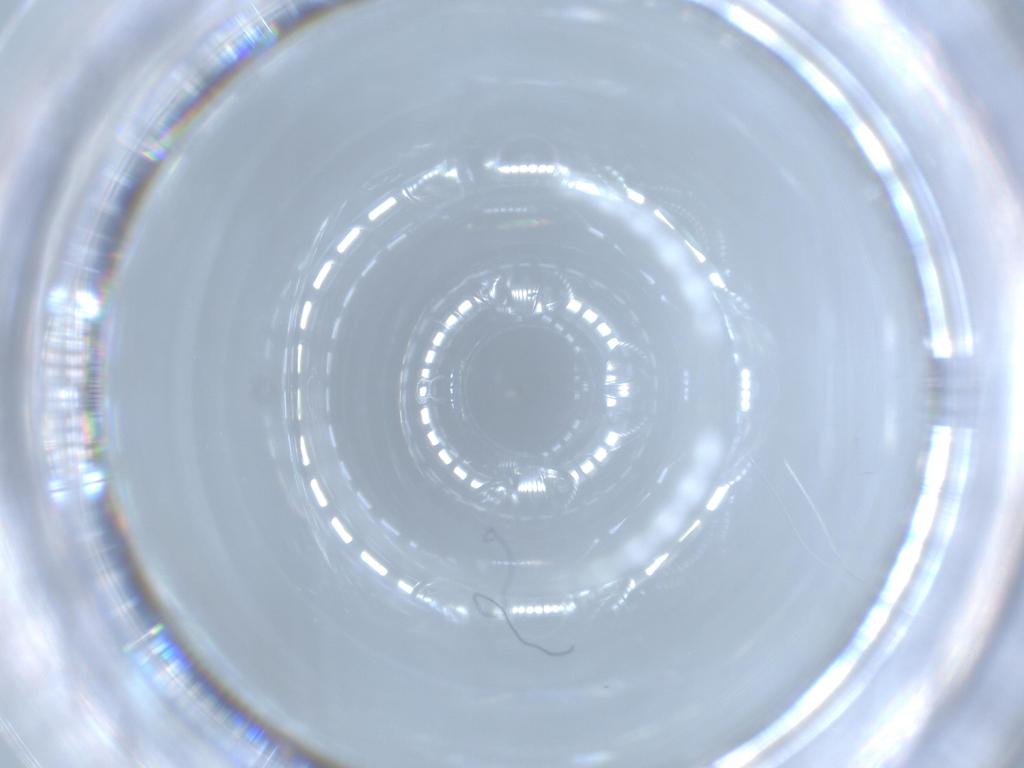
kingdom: Animalia
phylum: Arthropoda
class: Insecta
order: Hymenoptera
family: Trichogrammatidae
